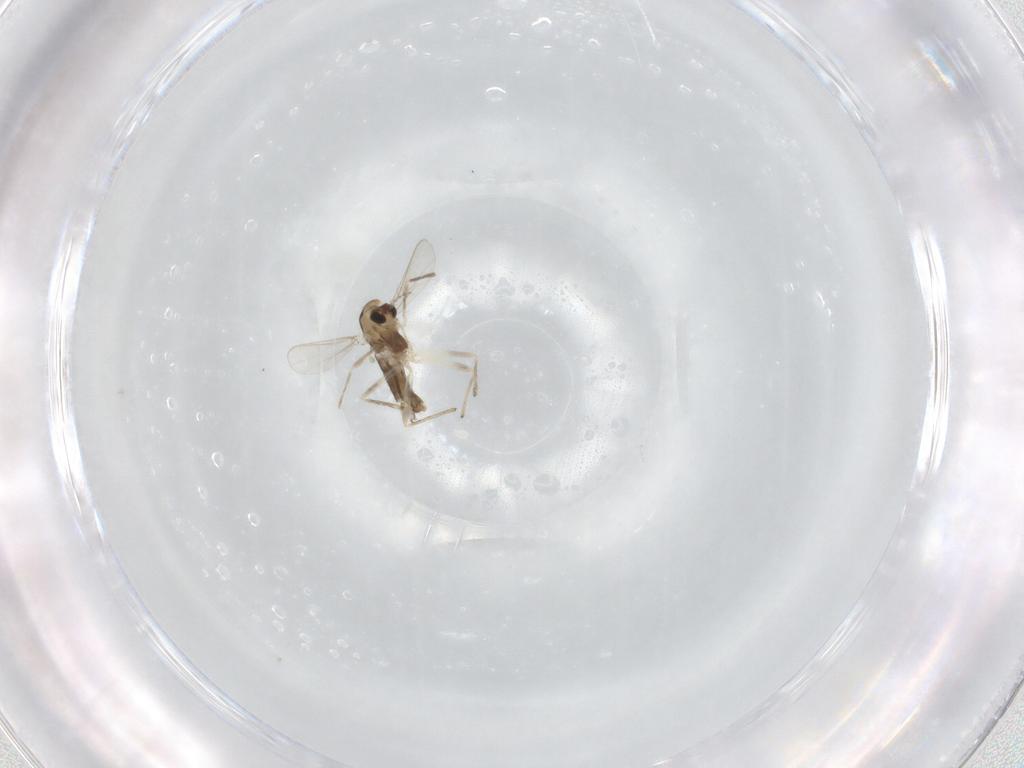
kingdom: Animalia
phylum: Arthropoda
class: Insecta
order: Diptera
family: Chironomidae
